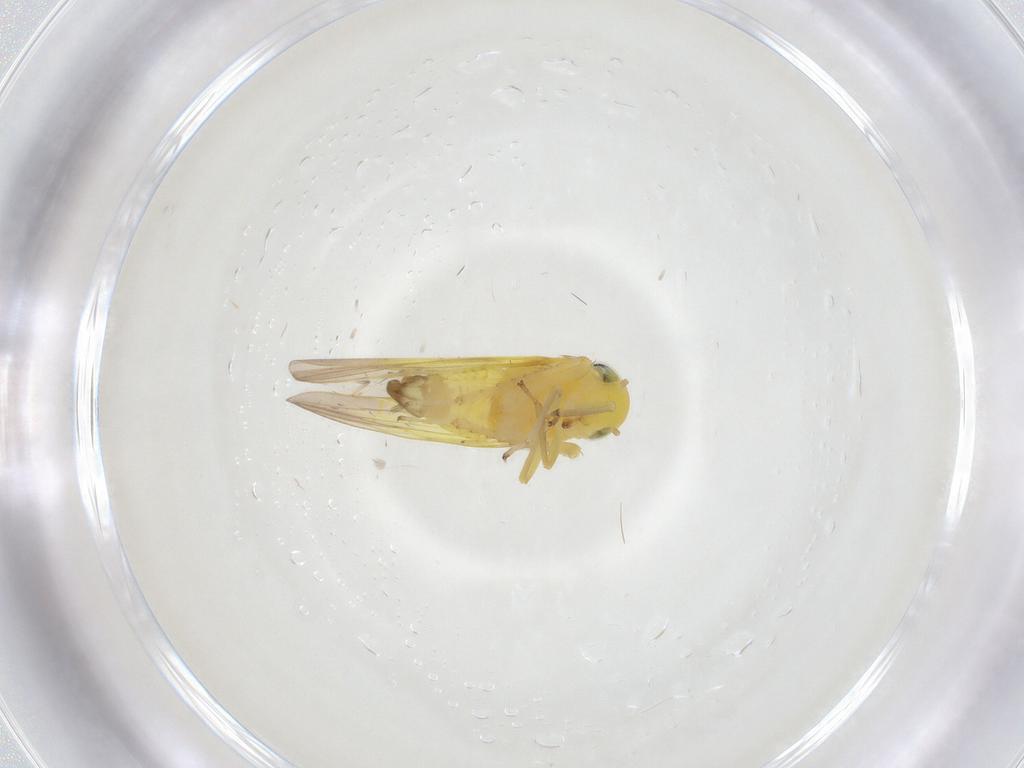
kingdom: Animalia
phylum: Arthropoda
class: Insecta
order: Hemiptera
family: Cicadellidae
